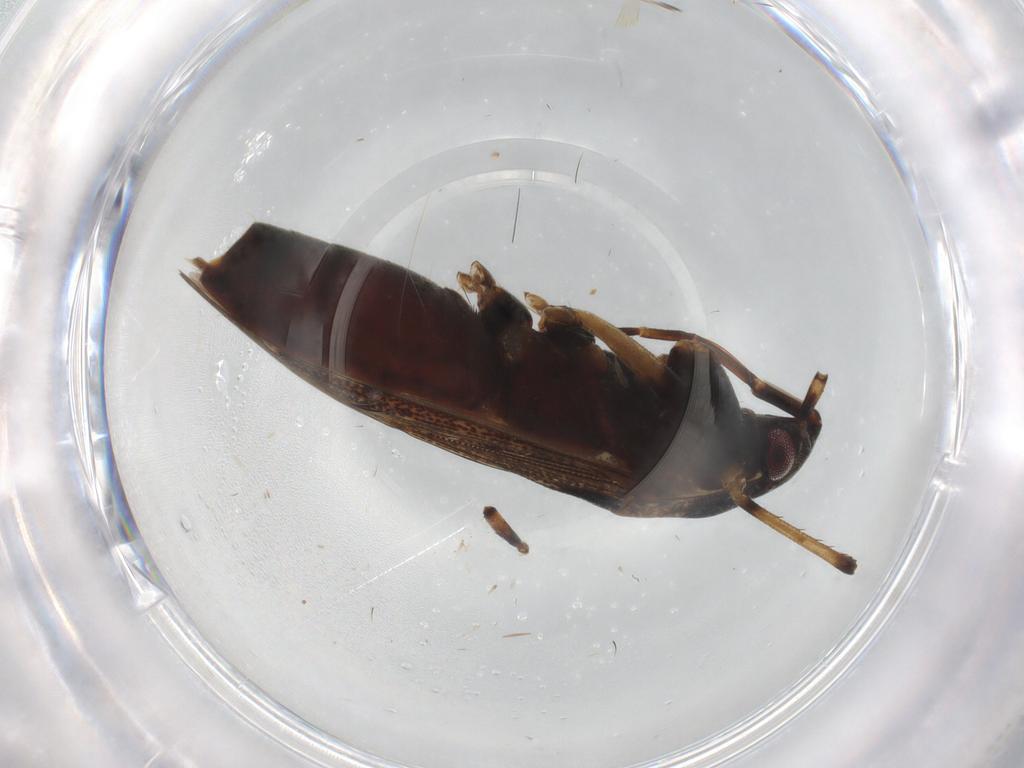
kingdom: Animalia
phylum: Arthropoda
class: Insecta
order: Hemiptera
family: Rhyparochromidae
